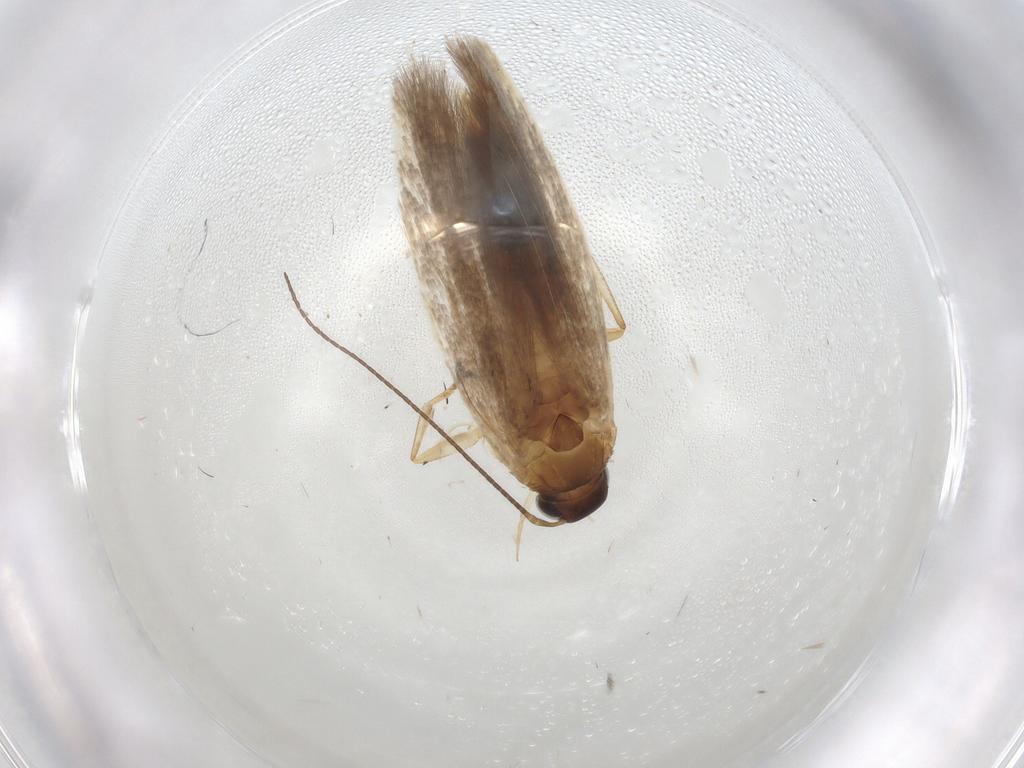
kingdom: Animalia
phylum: Arthropoda
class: Insecta
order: Lepidoptera
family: Gelechiidae
